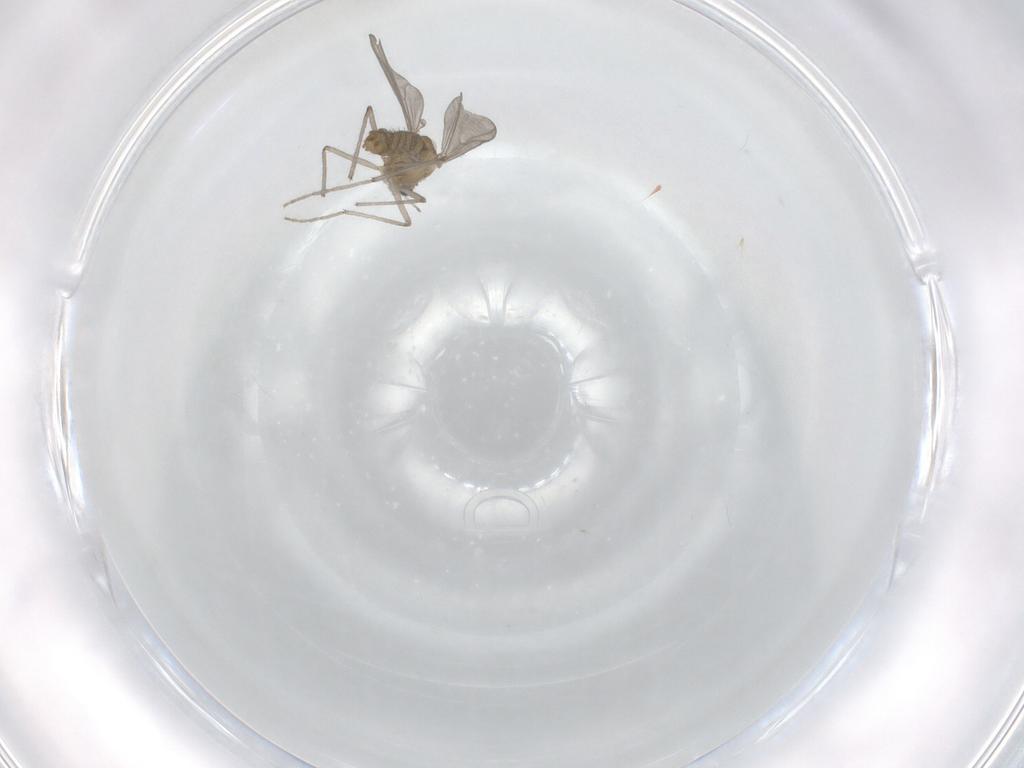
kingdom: Animalia
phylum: Arthropoda
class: Insecta
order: Diptera
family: Chironomidae
